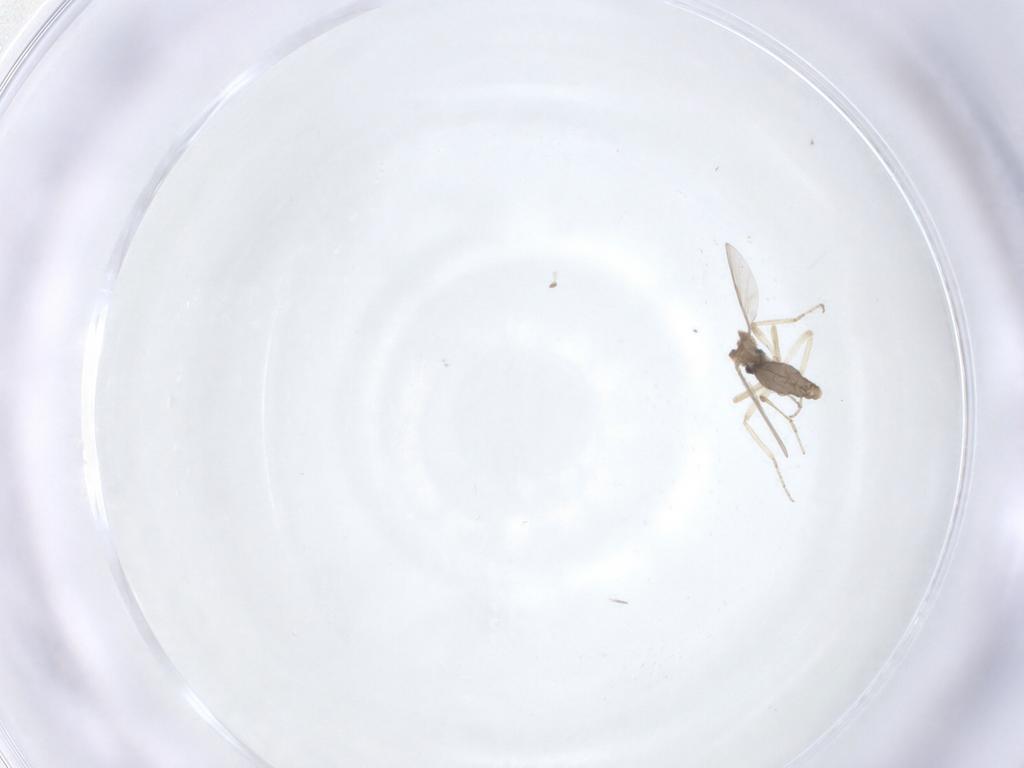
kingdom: Animalia
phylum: Arthropoda
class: Insecta
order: Diptera
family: Ceratopogonidae
